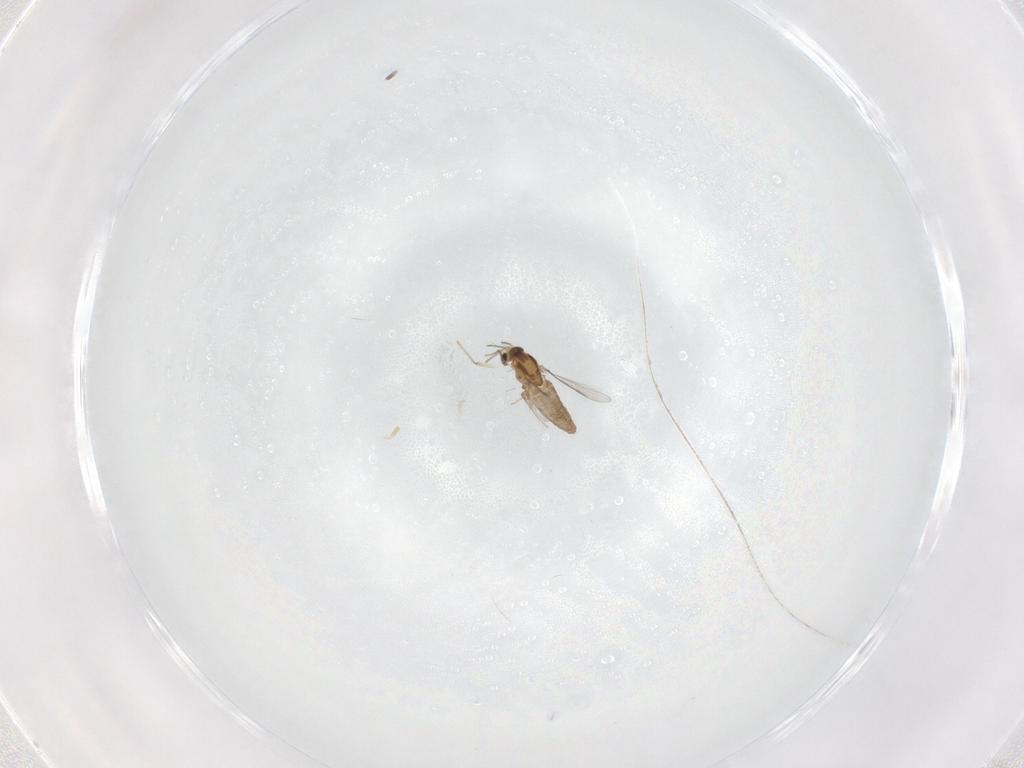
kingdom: Animalia
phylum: Arthropoda
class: Insecta
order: Diptera
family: Chironomidae
